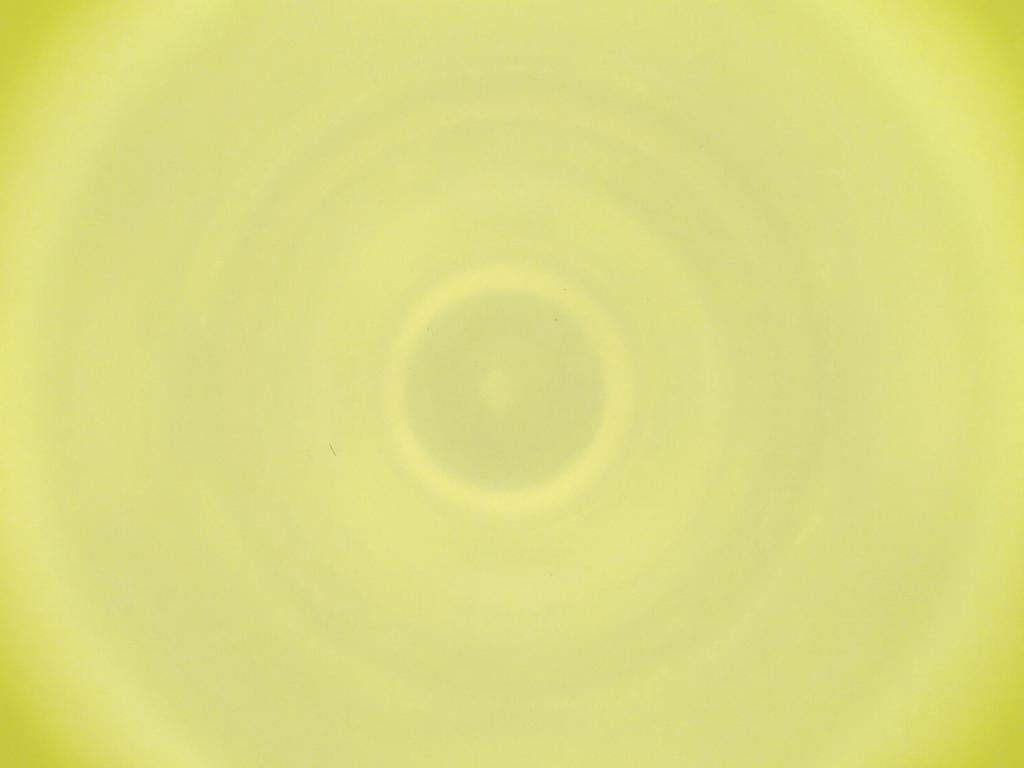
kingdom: Animalia
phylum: Arthropoda
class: Insecta
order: Diptera
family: Cecidomyiidae
